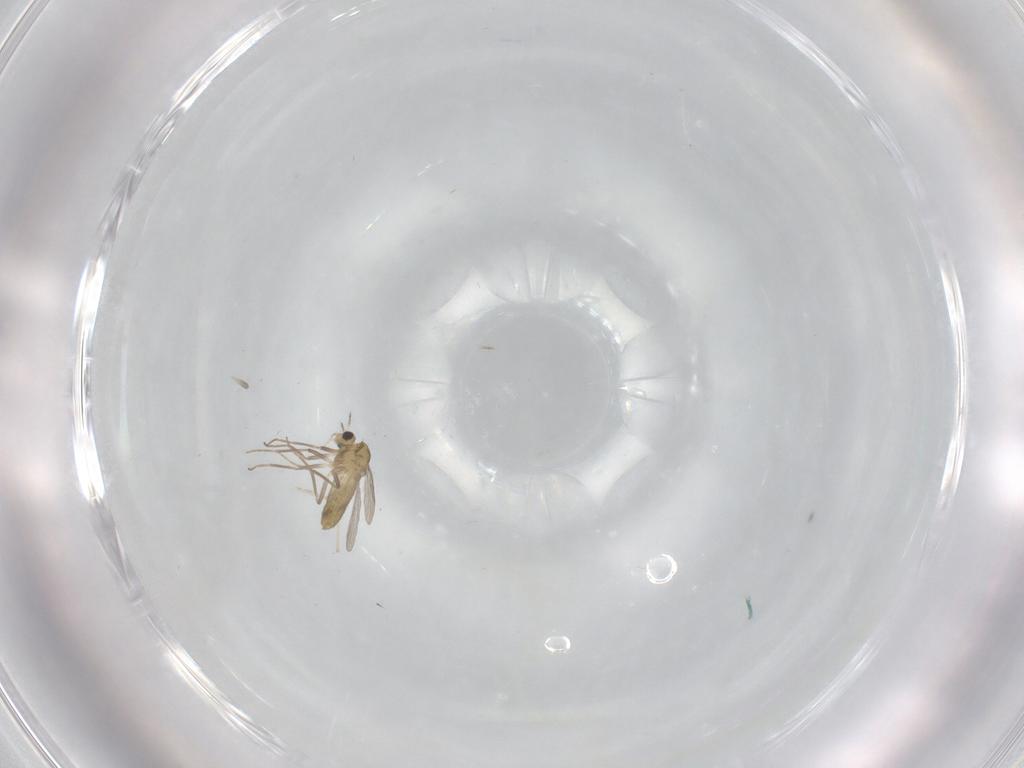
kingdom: Animalia
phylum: Arthropoda
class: Insecta
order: Diptera
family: Chironomidae
